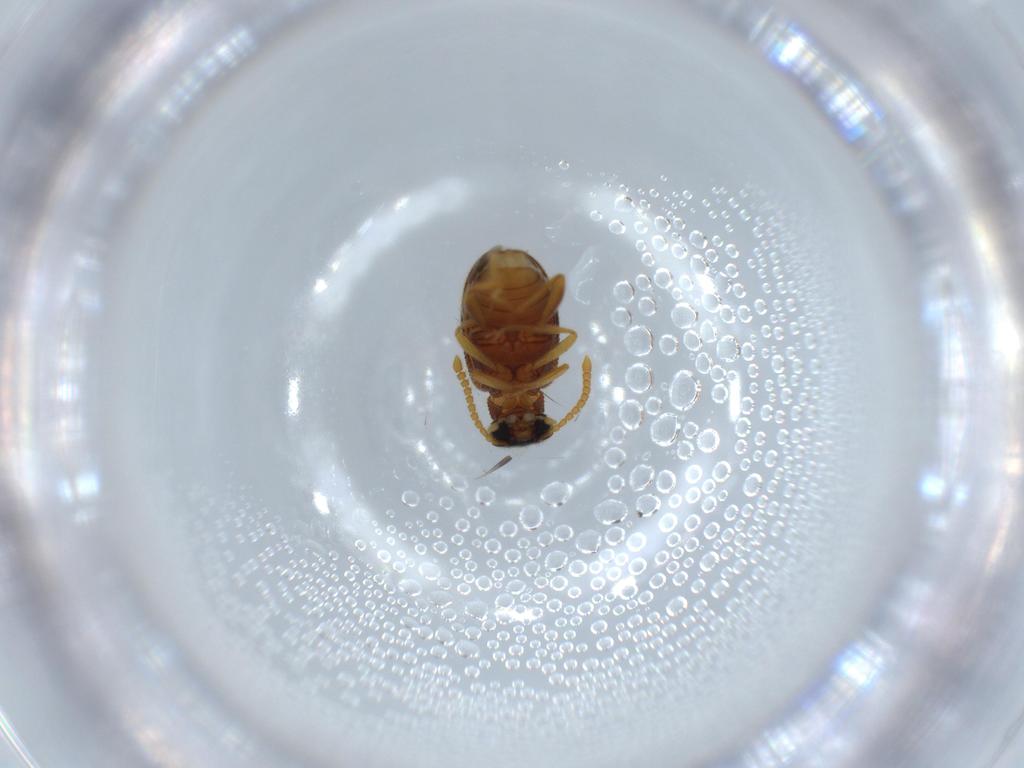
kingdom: Animalia
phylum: Arthropoda
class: Insecta
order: Coleoptera
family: Aderidae
